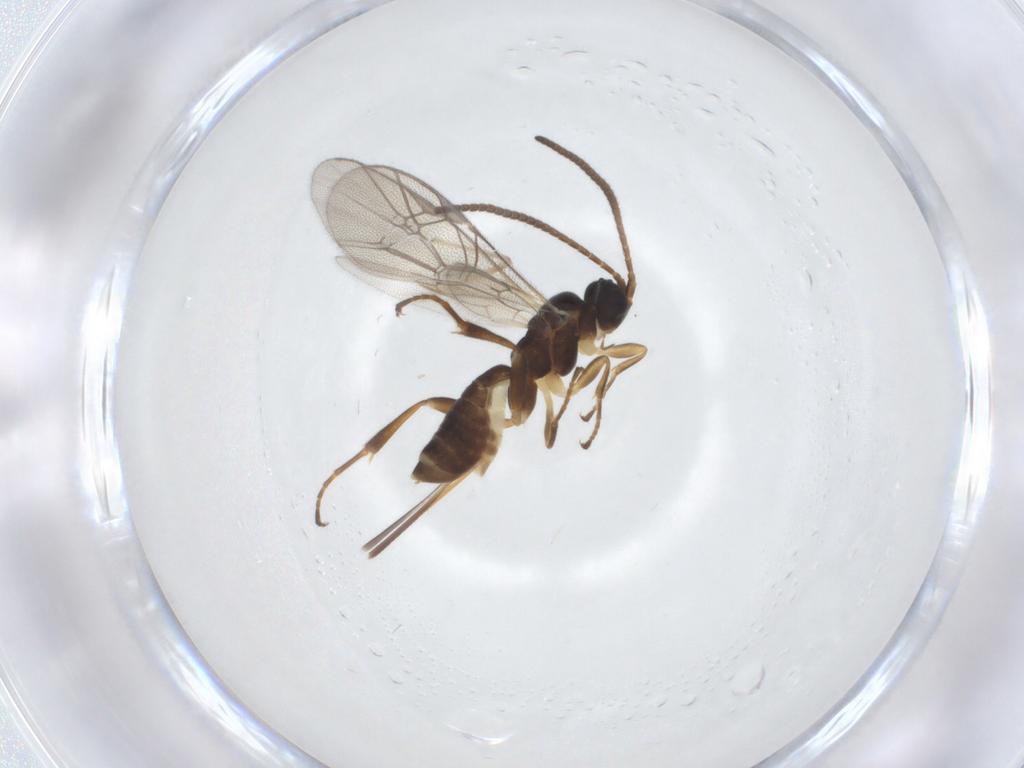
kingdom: Animalia
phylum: Arthropoda
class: Insecta
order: Hymenoptera
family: Ichneumonidae
